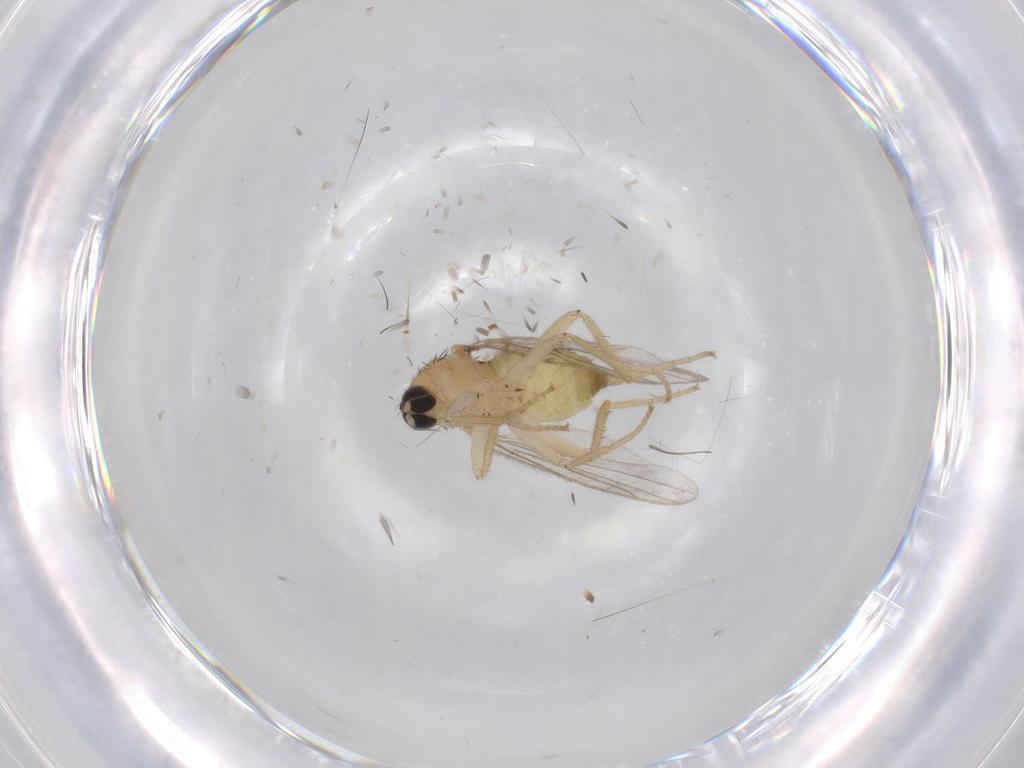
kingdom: Animalia
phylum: Arthropoda
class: Insecta
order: Diptera
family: Hybotidae
